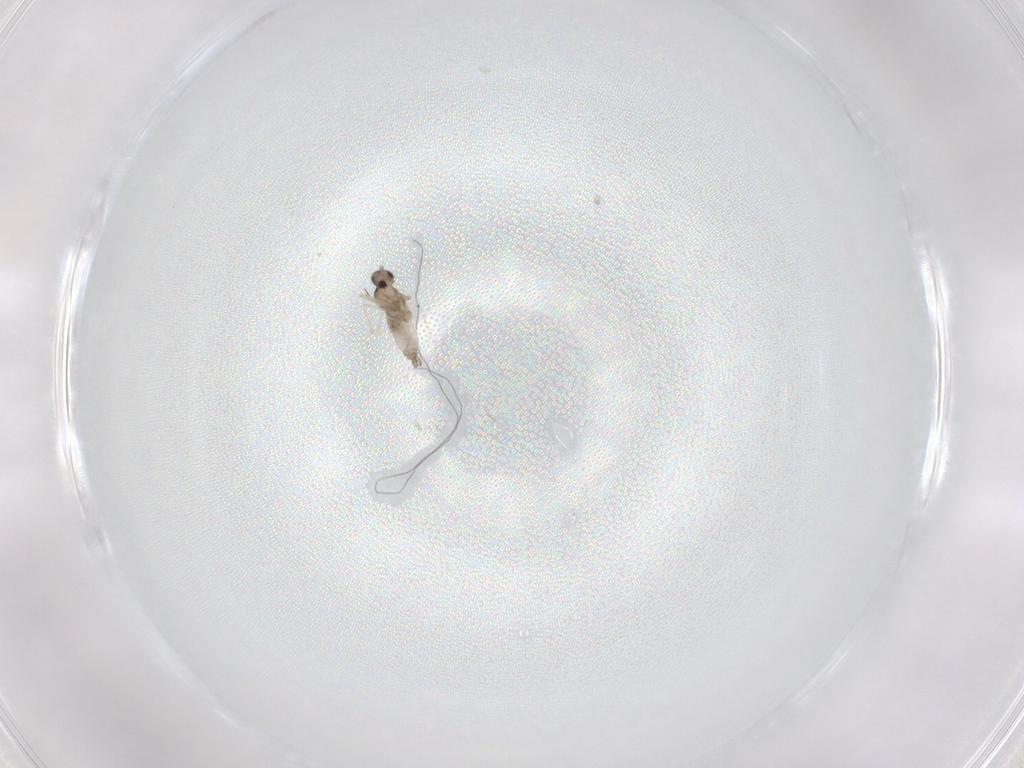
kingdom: Animalia
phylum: Arthropoda
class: Insecta
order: Diptera
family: Cecidomyiidae
